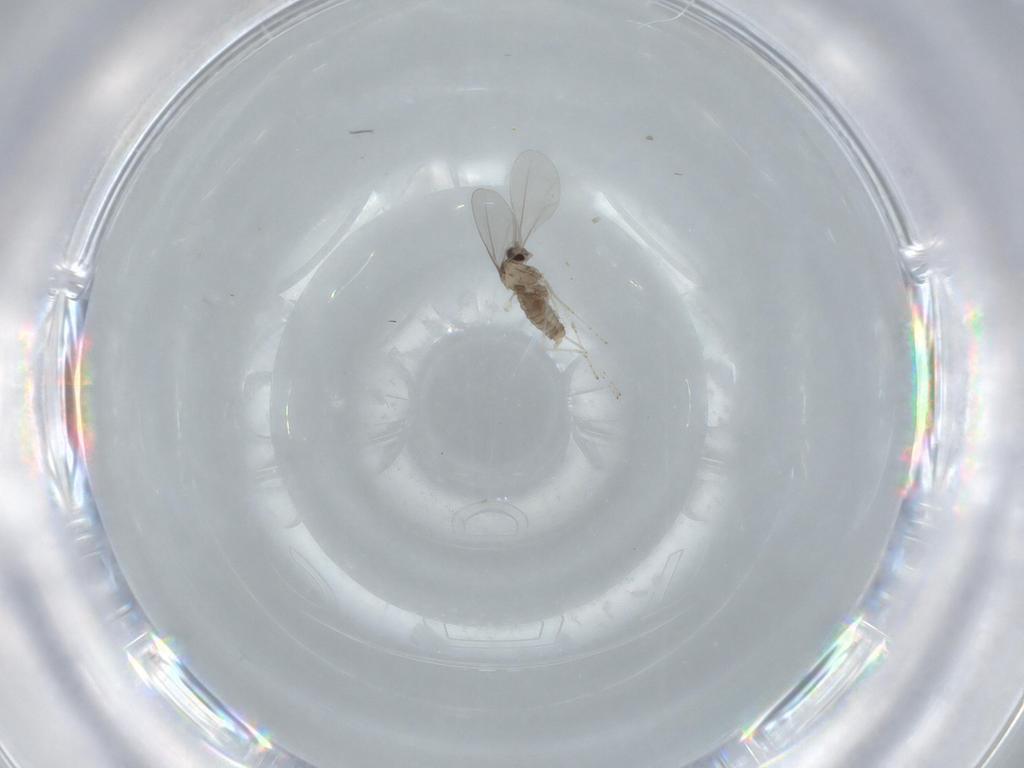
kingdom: Animalia
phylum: Arthropoda
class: Insecta
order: Diptera
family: Cecidomyiidae
